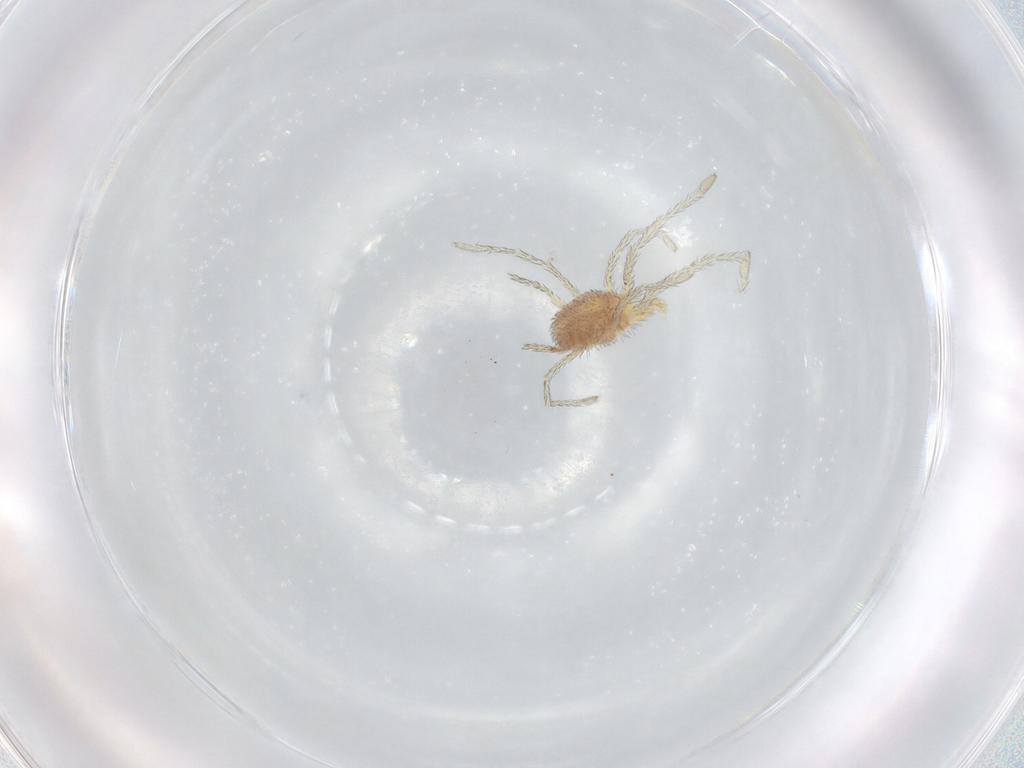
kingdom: Animalia
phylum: Arthropoda
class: Arachnida
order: Trombidiformes
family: Erythraeidae
